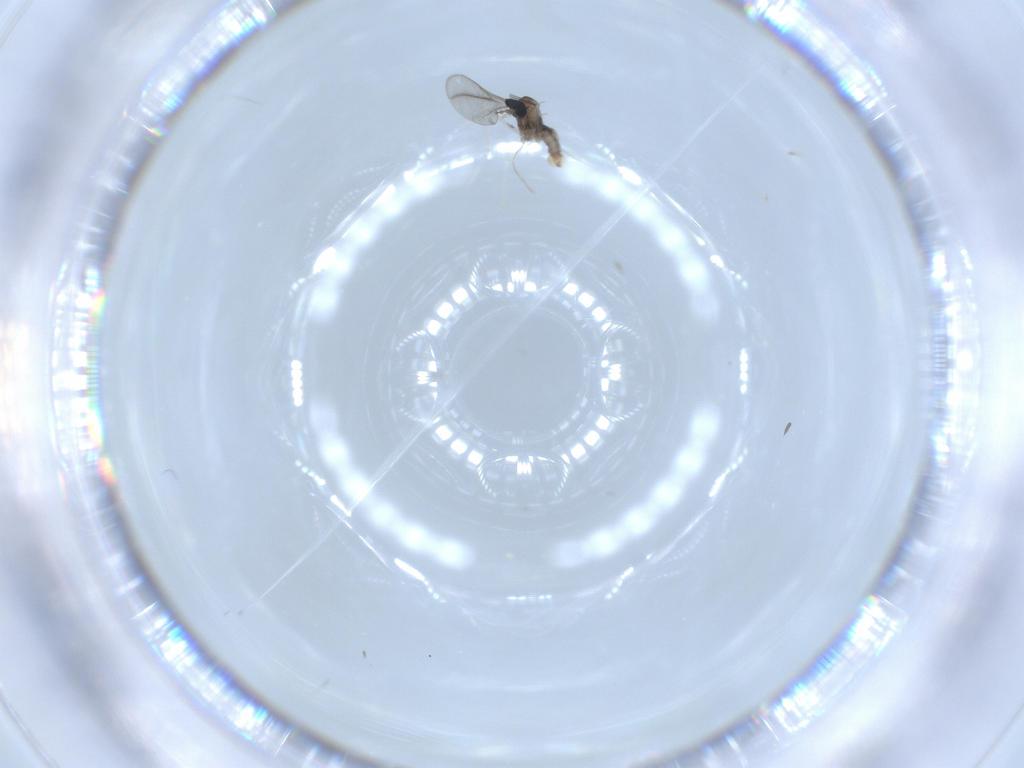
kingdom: Animalia
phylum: Arthropoda
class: Insecta
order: Diptera
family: Cecidomyiidae
